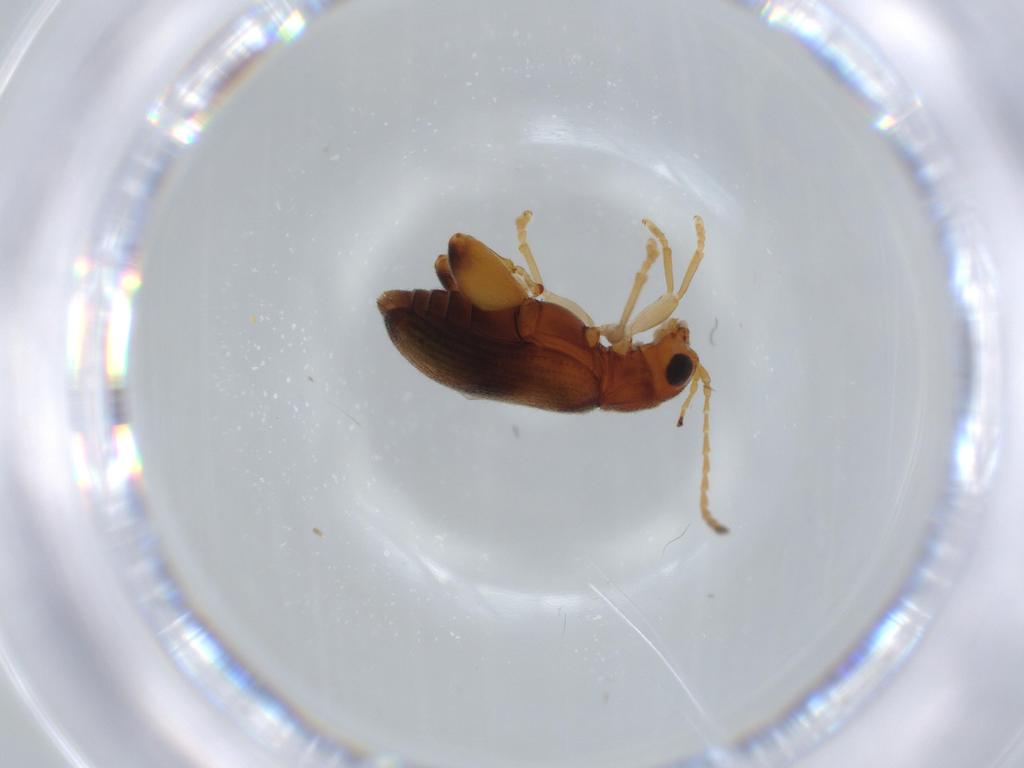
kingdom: Animalia
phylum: Arthropoda
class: Insecta
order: Coleoptera
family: Chrysomelidae
